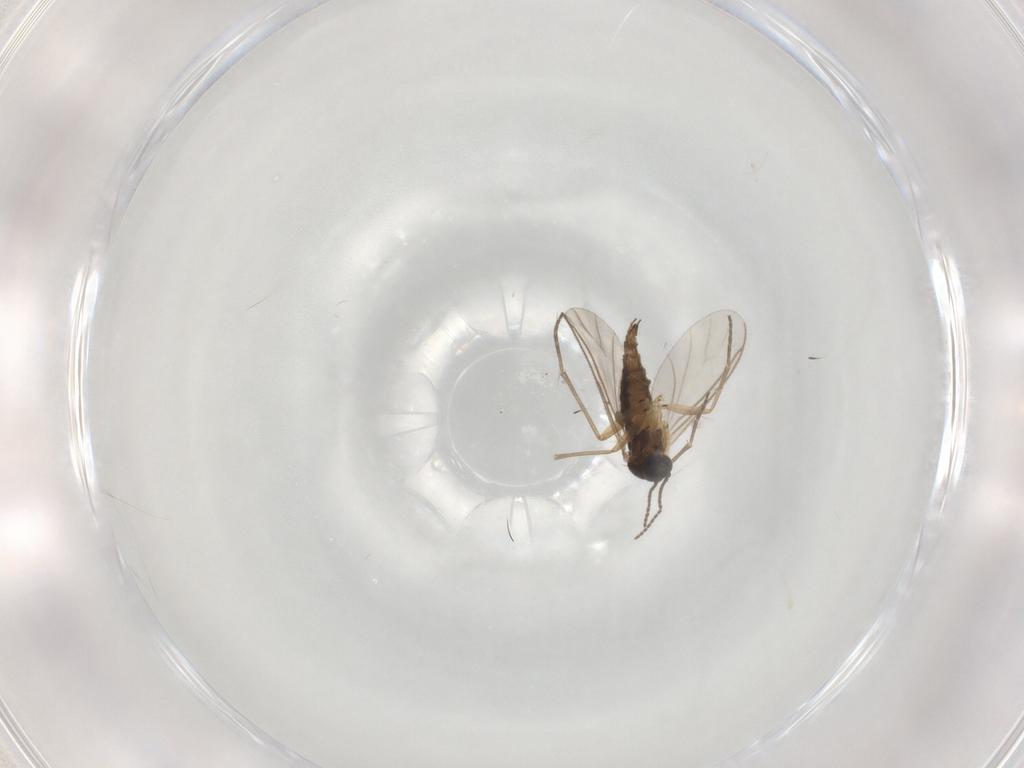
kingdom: Animalia
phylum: Arthropoda
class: Insecta
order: Diptera
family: Sciaridae
